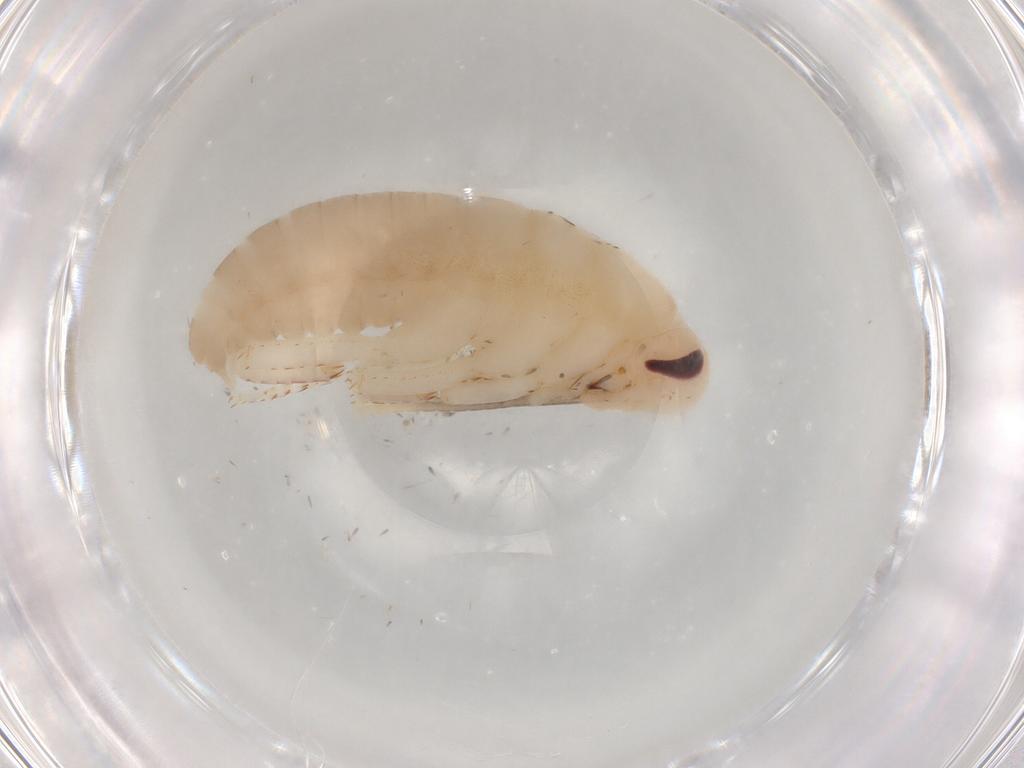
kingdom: Animalia
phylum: Arthropoda
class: Insecta
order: Blattodea
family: Blaberidae
